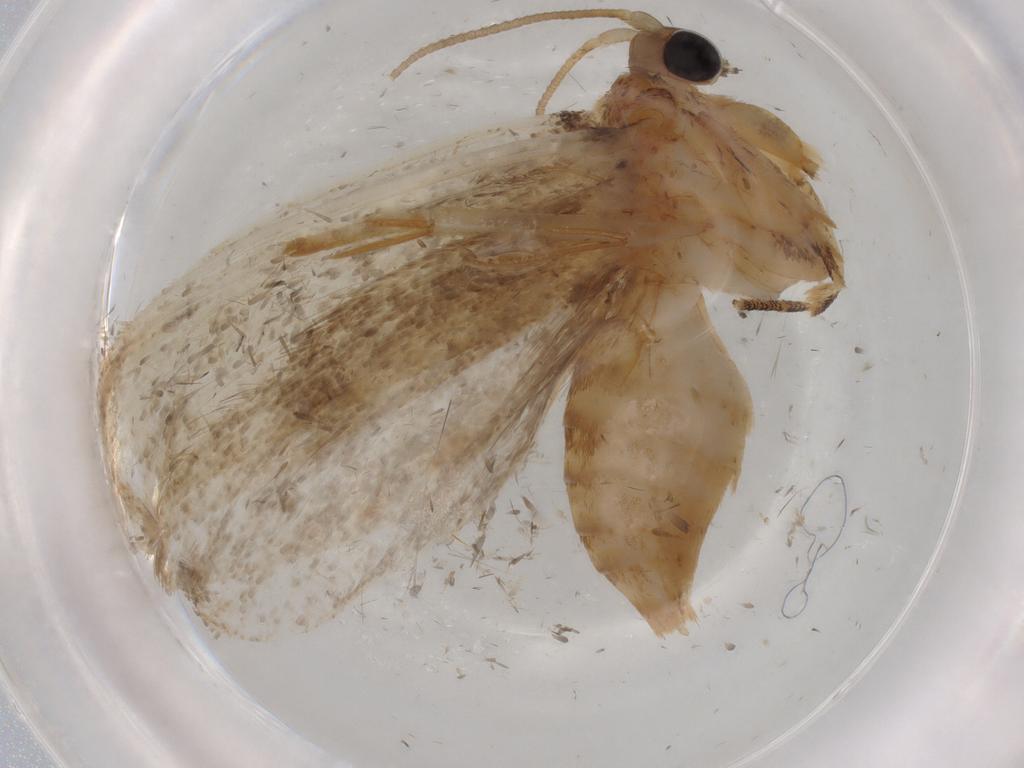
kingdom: Animalia
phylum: Arthropoda
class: Insecta
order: Lepidoptera
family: Tineidae
